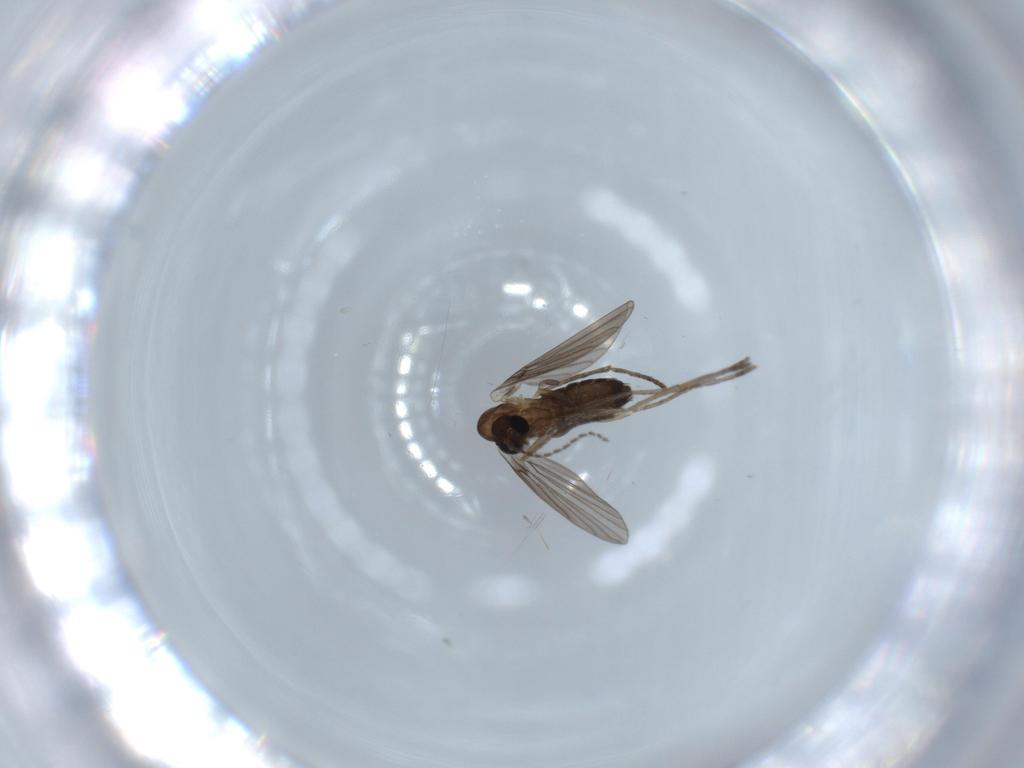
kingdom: Animalia
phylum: Arthropoda
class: Insecta
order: Diptera
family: Psychodidae
